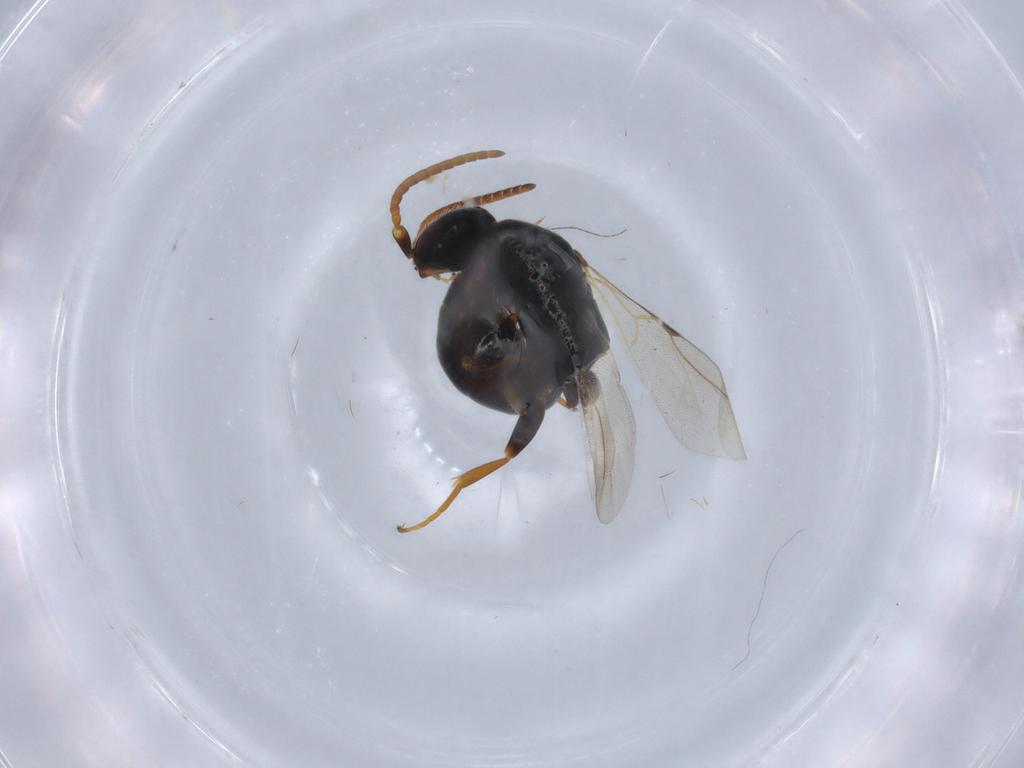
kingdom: Animalia
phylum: Arthropoda
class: Insecta
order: Hymenoptera
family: Bethylidae
